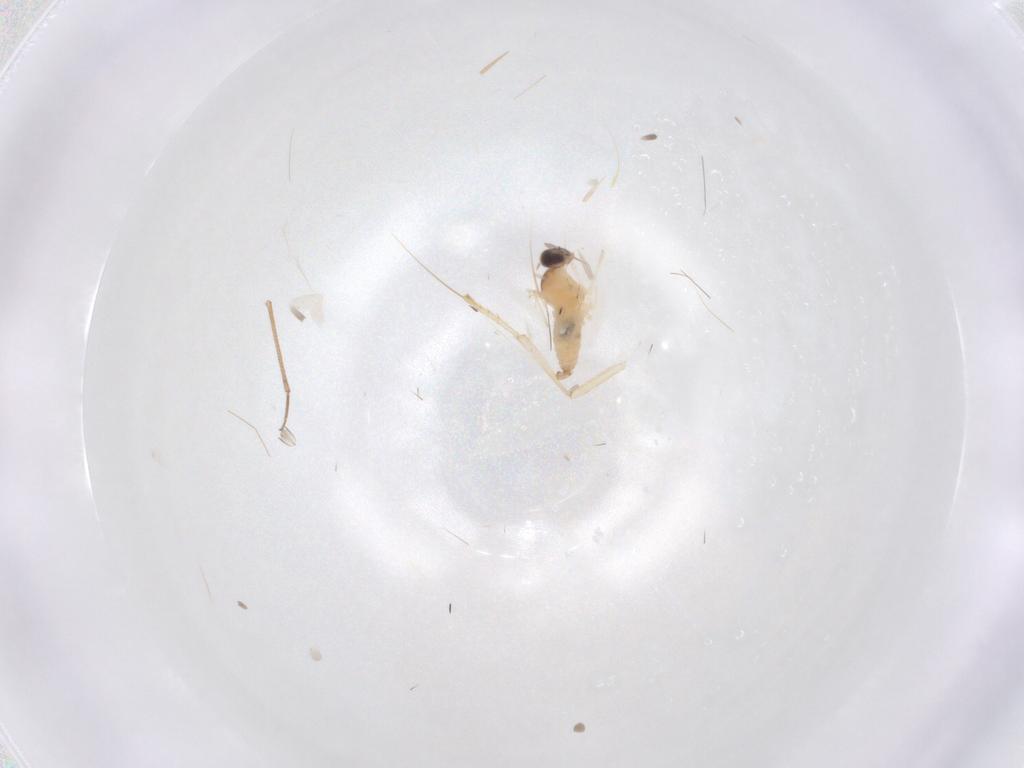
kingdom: Animalia
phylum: Arthropoda
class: Insecta
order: Diptera
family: Cecidomyiidae
